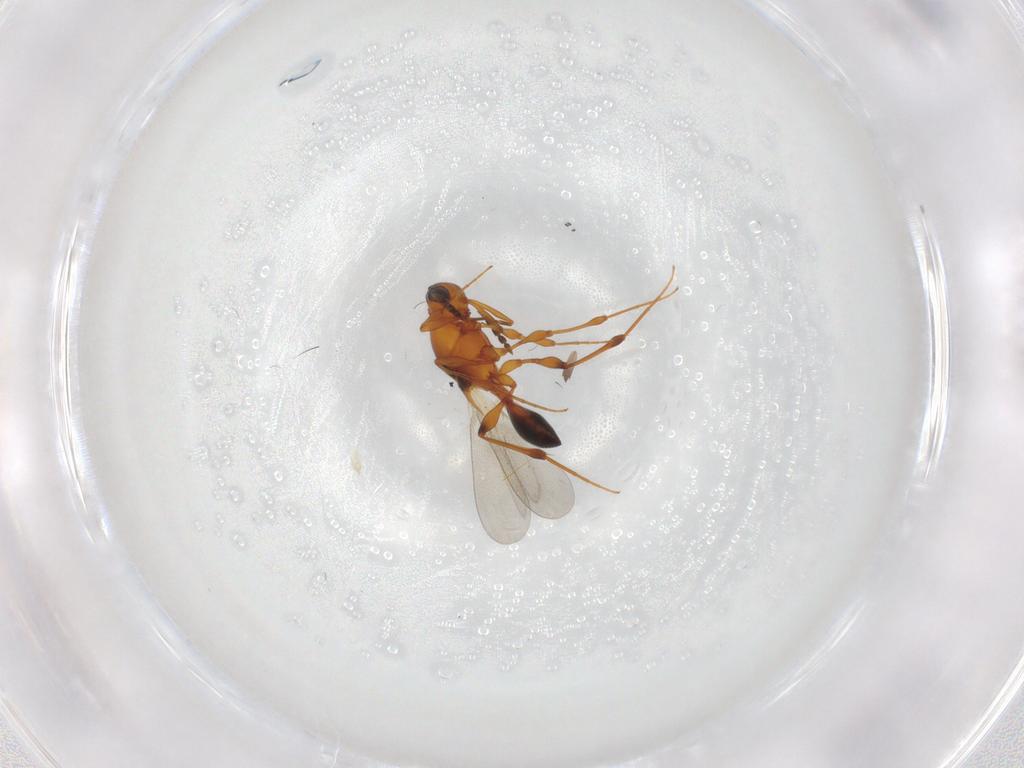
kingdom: Animalia
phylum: Arthropoda
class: Insecta
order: Hymenoptera
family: Platygastridae
